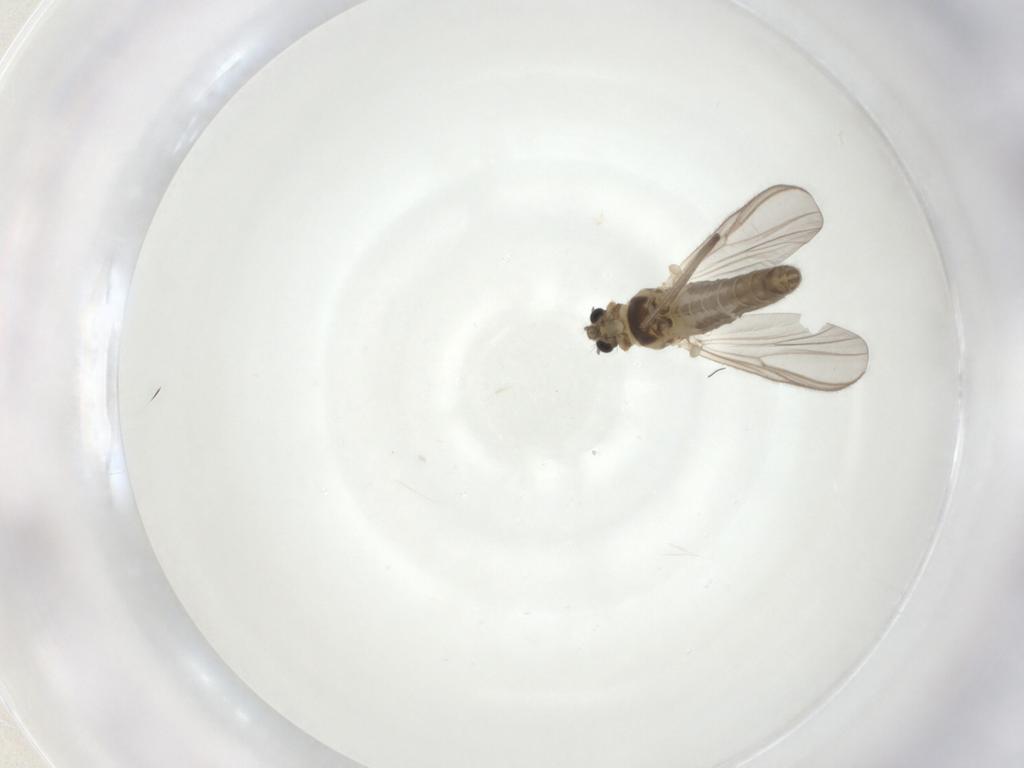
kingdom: Animalia
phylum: Arthropoda
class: Insecta
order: Diptera
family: Chironomidae
